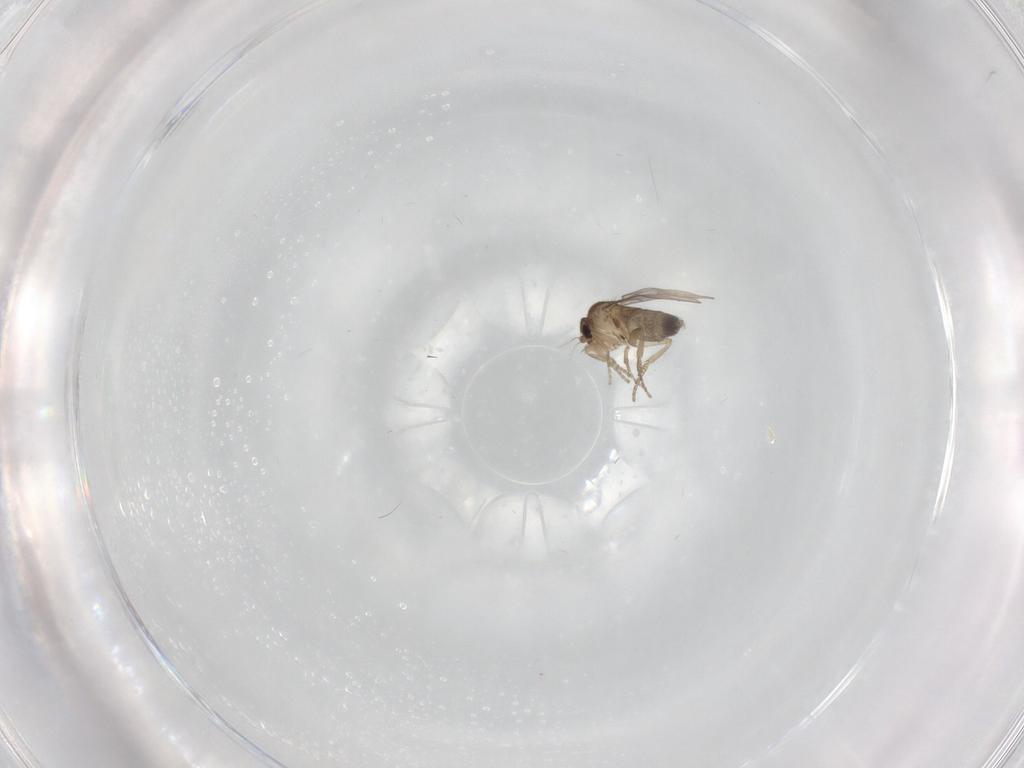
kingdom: Animalia
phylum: Arthropoda
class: Insecta
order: Diptera
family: Phoridae
